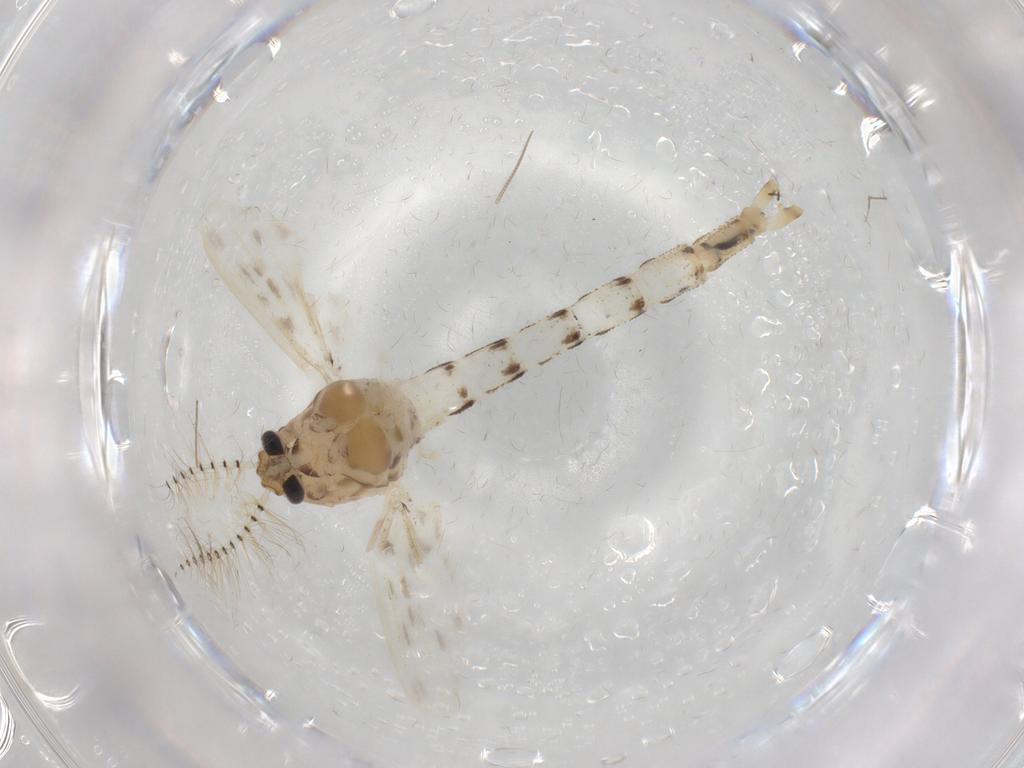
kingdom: Animalia
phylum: Arthropoda
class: Insecta
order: Diptera
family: Chaoboridae
